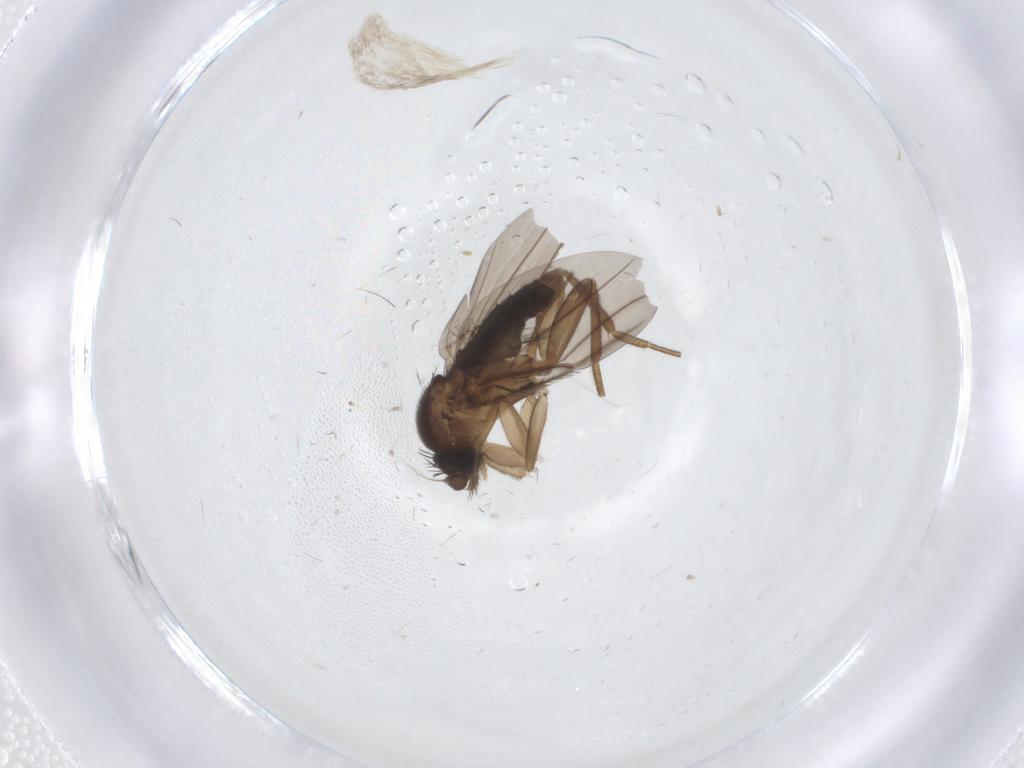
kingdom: Animalia
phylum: Arthropoda
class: Insecta
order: Diptera
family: Ceratopogonidae
